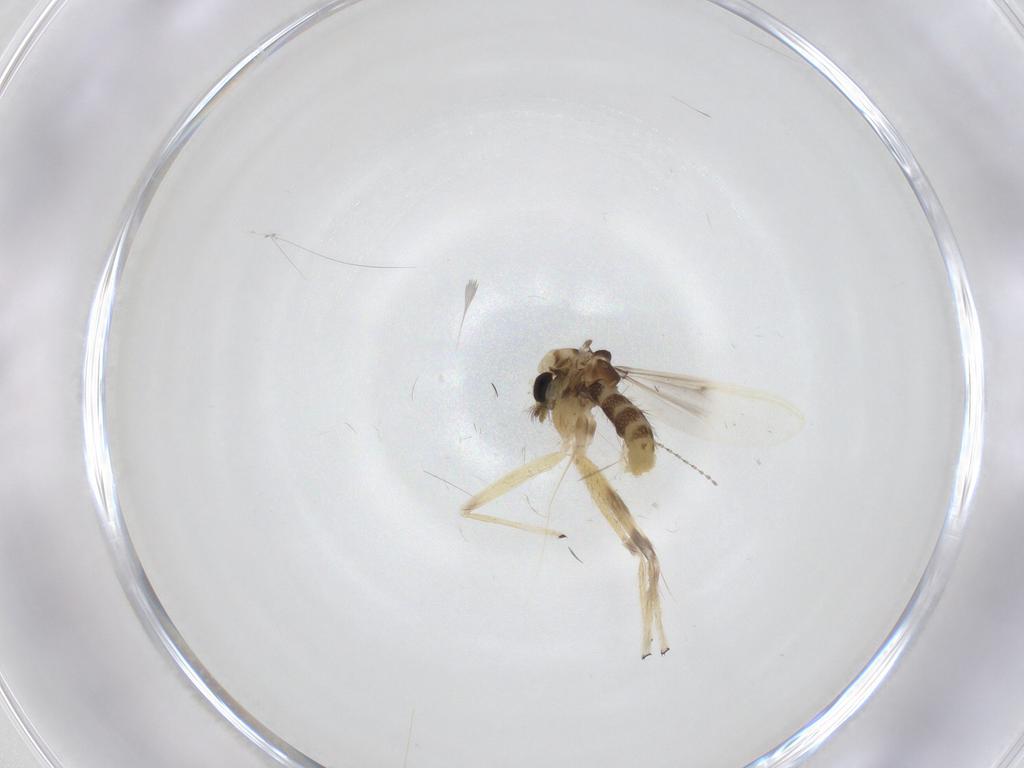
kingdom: Animalia
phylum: Arthropoda
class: Insecta
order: Diptera
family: Chironomidae
